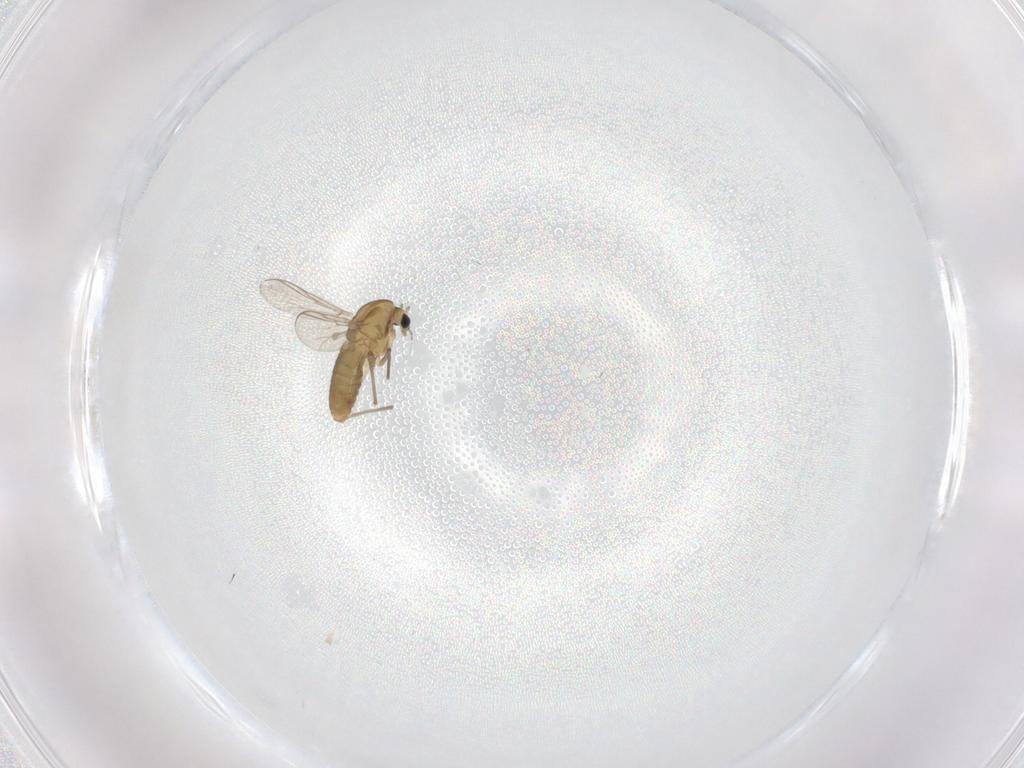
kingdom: Animalia
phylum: Arthropoda
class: Insecta
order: Diptera
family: Chironomidae
